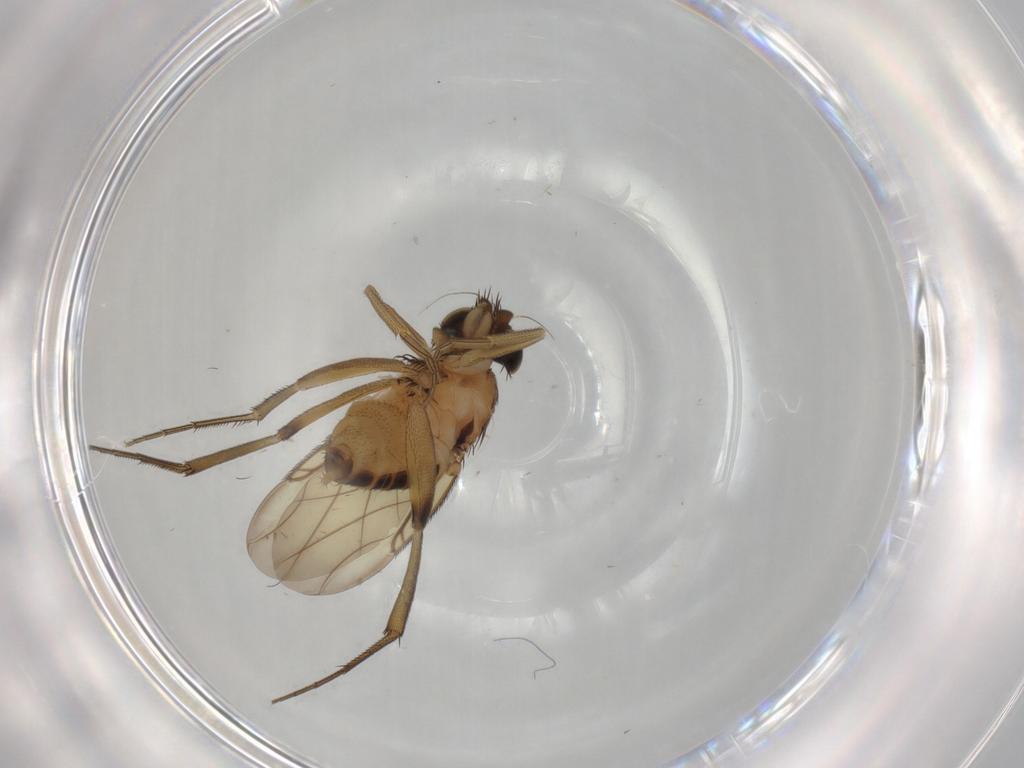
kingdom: Animalia
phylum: Arthropoda
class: Insecta
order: Diptera
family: Phoridae
